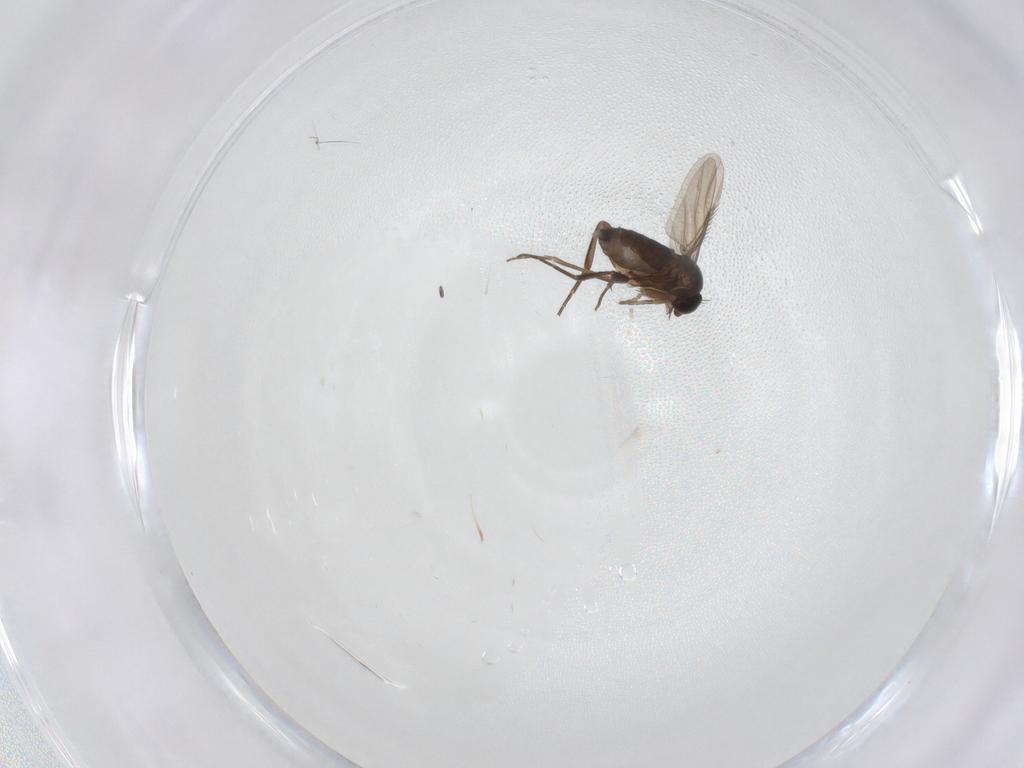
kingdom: Animalia
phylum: Arthropoda
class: Insecta
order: Diptera
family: Phoridae
